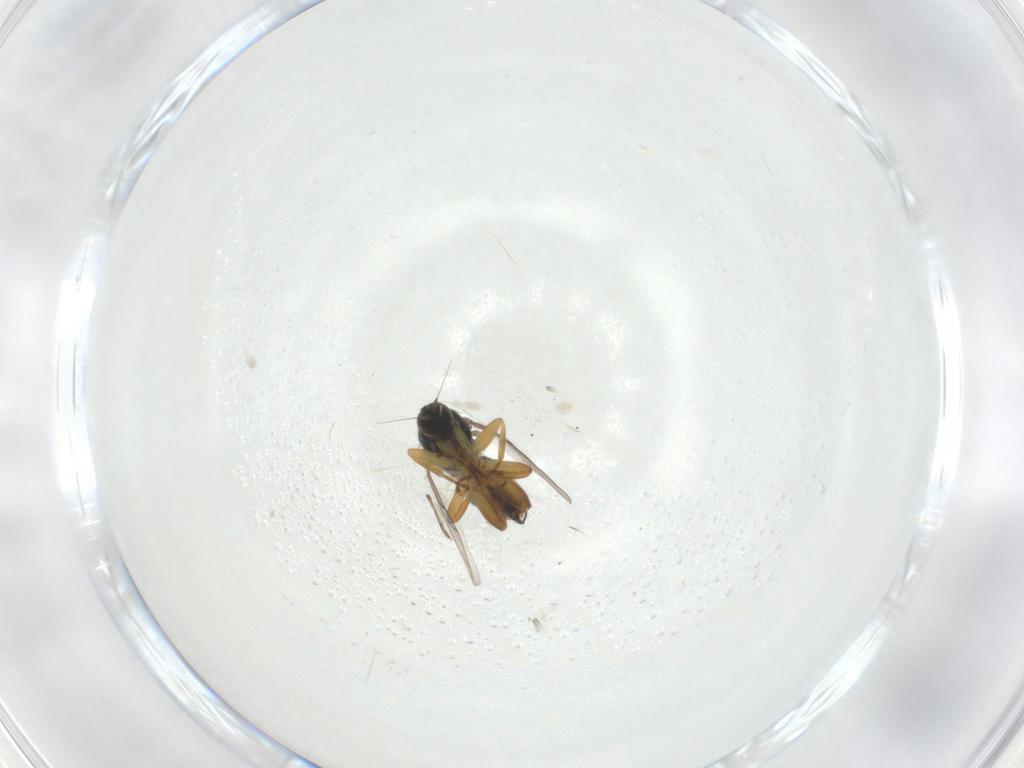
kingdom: Animalia
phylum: Arthropoda
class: Insecta
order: Diptera
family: Hybotidae
